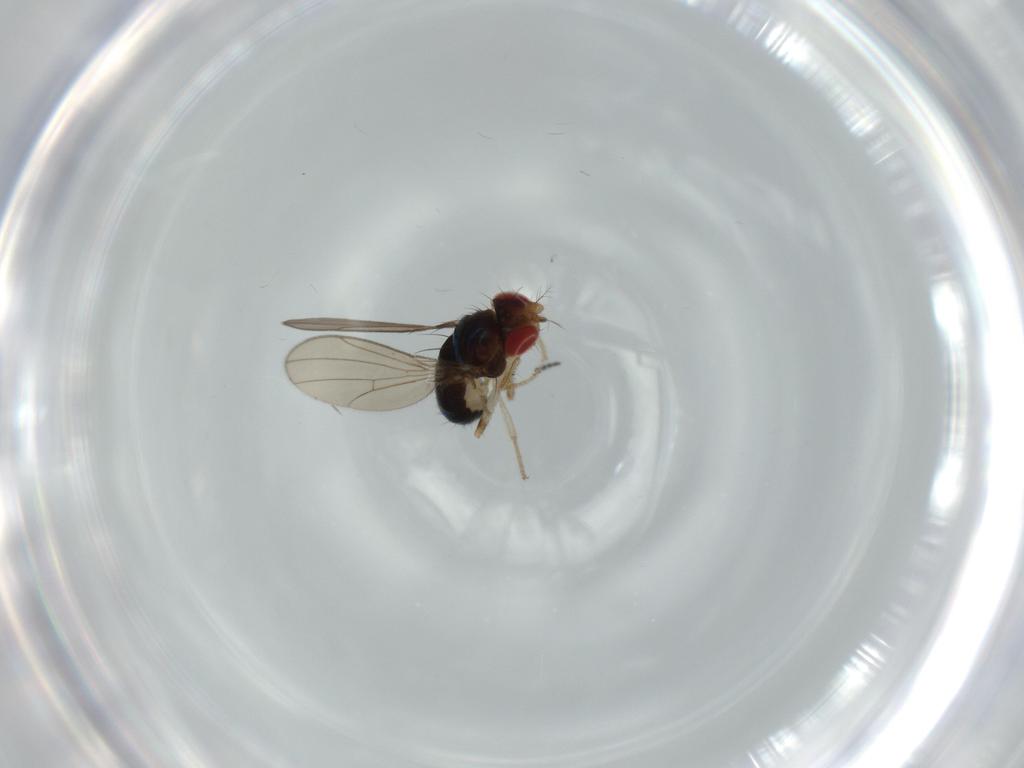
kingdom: Animalia
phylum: Arthropoda
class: Insecta
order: Diptera
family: Drosophilidae
